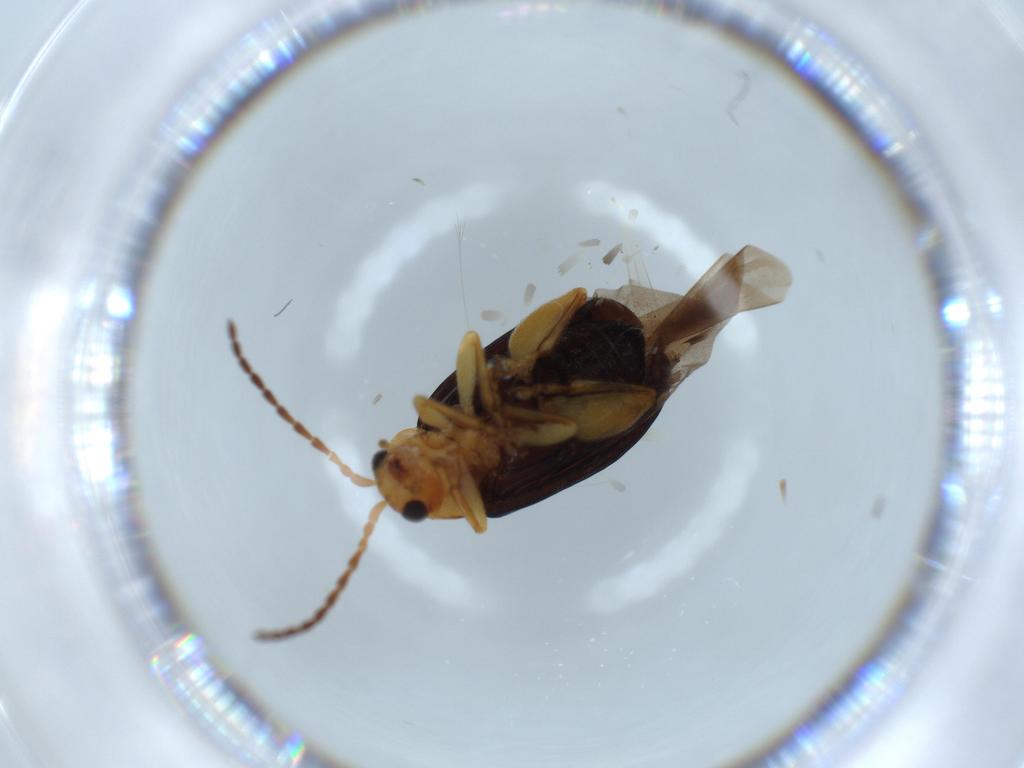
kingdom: Animalia
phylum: Arthropoda
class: Insecta
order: Coleoptera
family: Chrysomelidae
